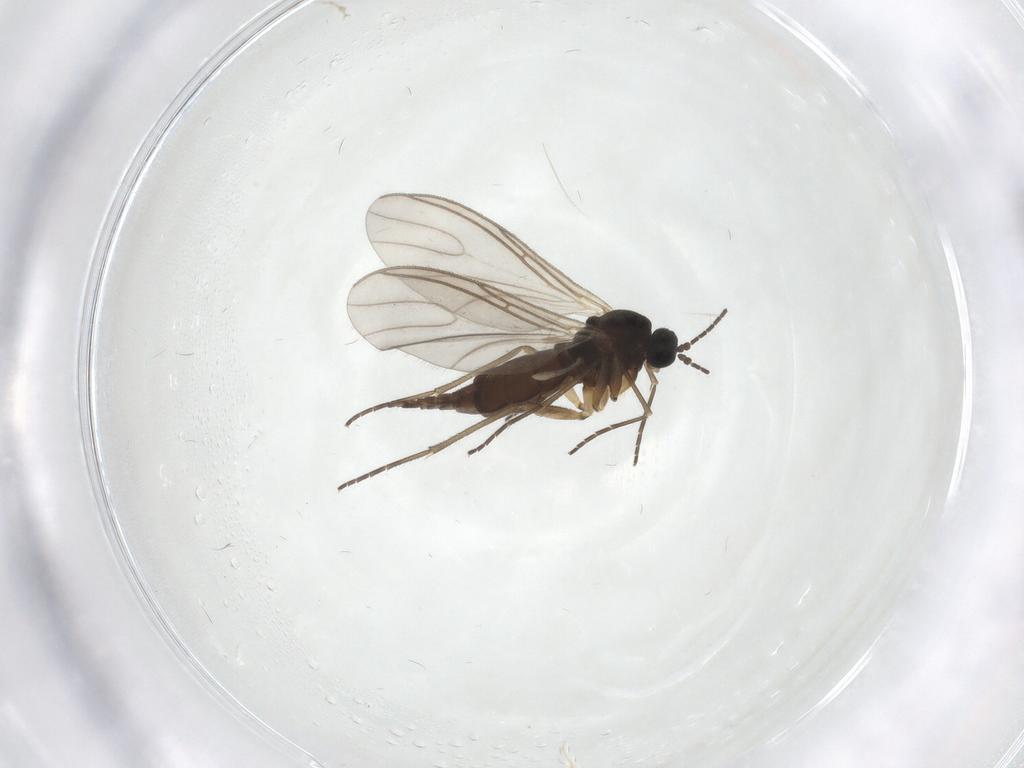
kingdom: Animalia
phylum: Arthropoda
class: Insecta
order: Diptera
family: Sciaridae
